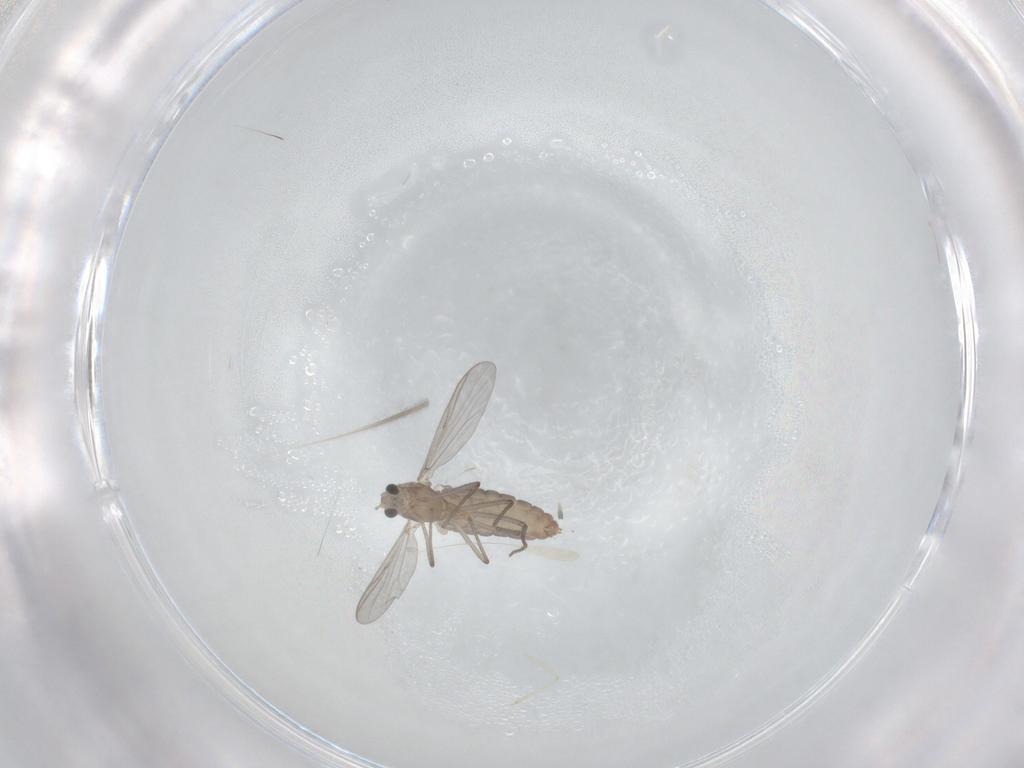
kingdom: Animalia
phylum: Arthropoda
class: Insecta
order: Diptera
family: Chironomidae
